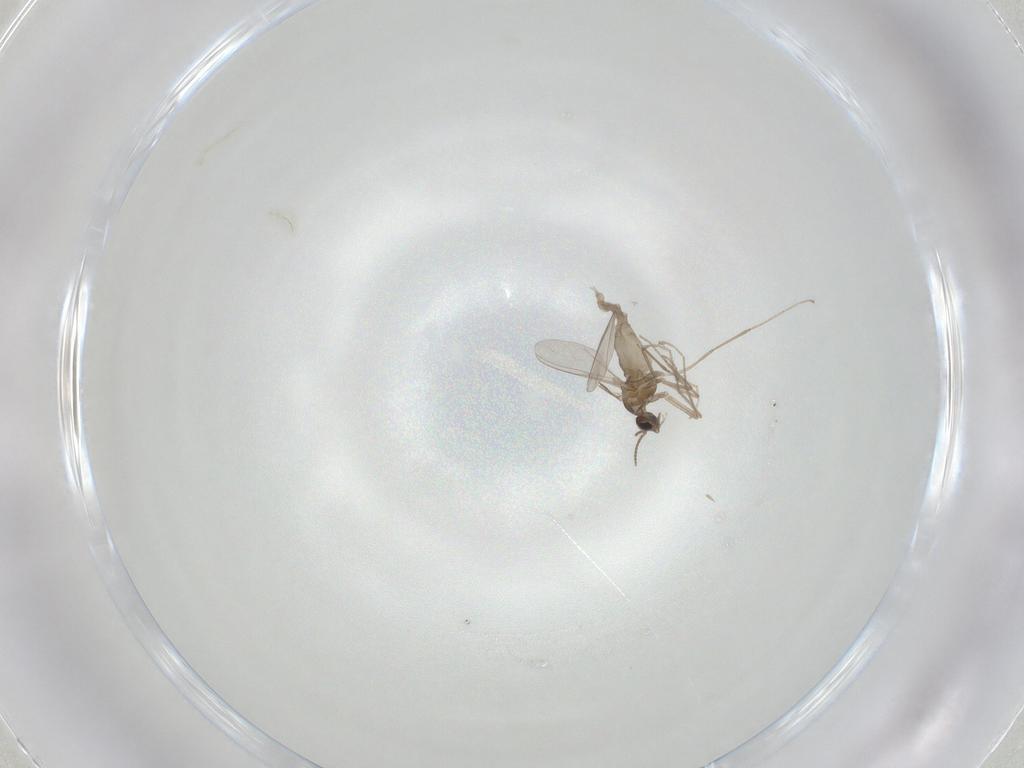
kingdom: Animalia
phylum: Arthropoda
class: Insecta
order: Diptera
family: Cecidomyiidae
